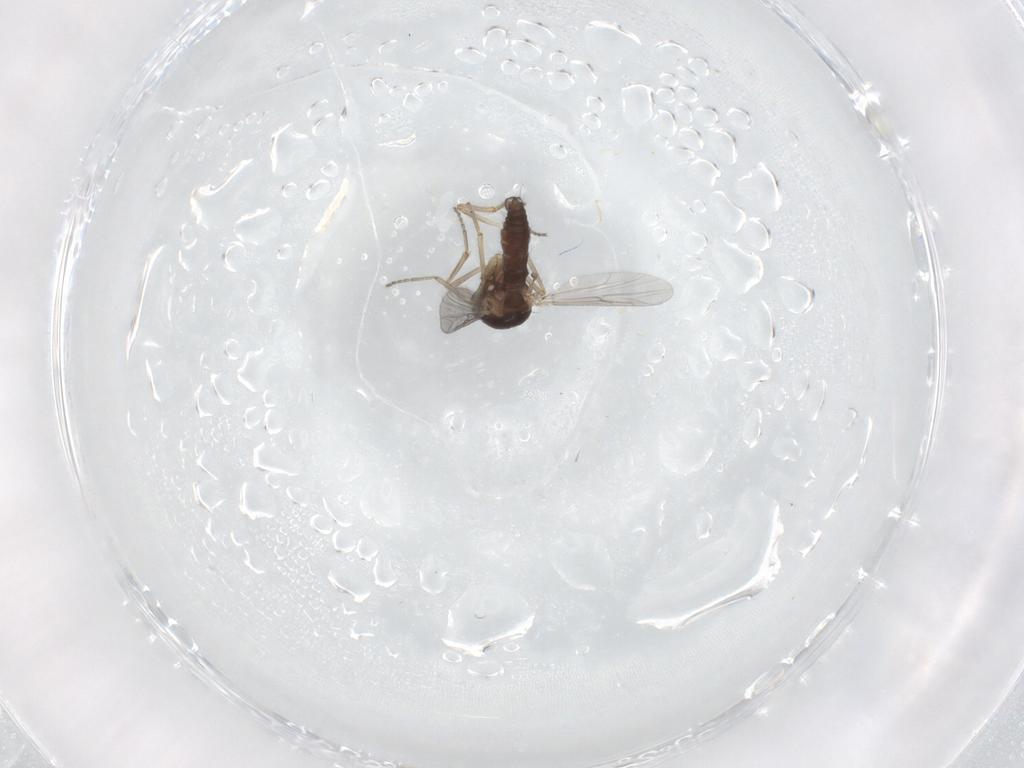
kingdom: Animalia
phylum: Arthropoda
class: Insecta
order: Diptera
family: Ceratopogonidae
